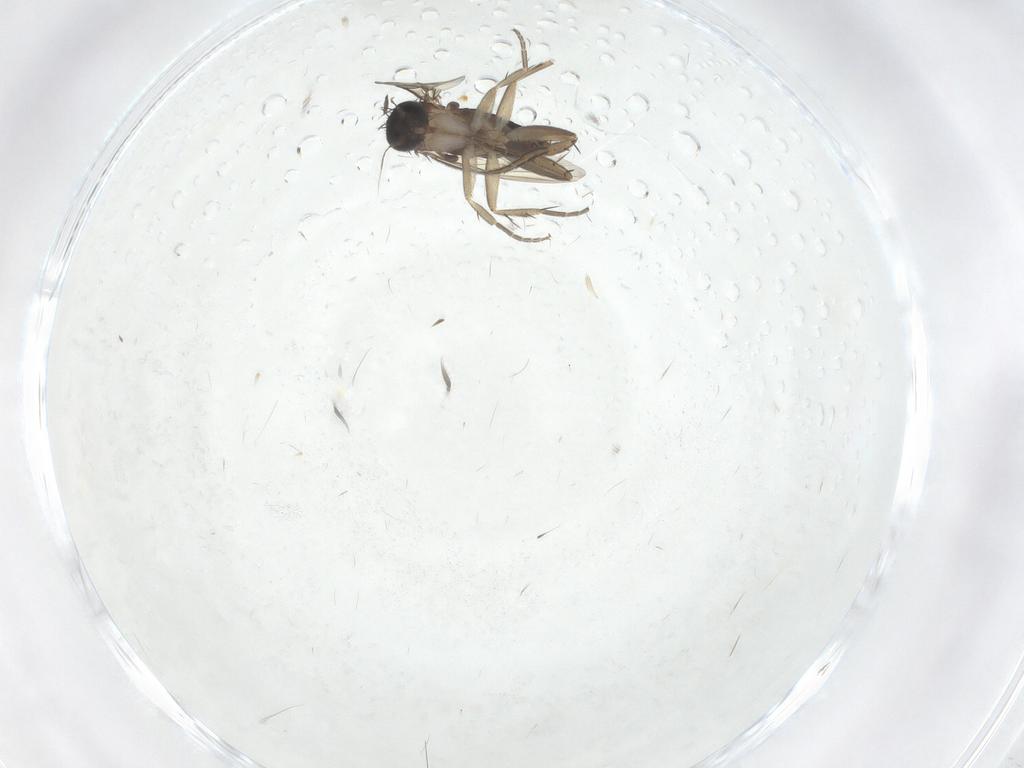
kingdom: Animalia
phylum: Arthropoda
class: Insecta
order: Diptera
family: Phoridae
